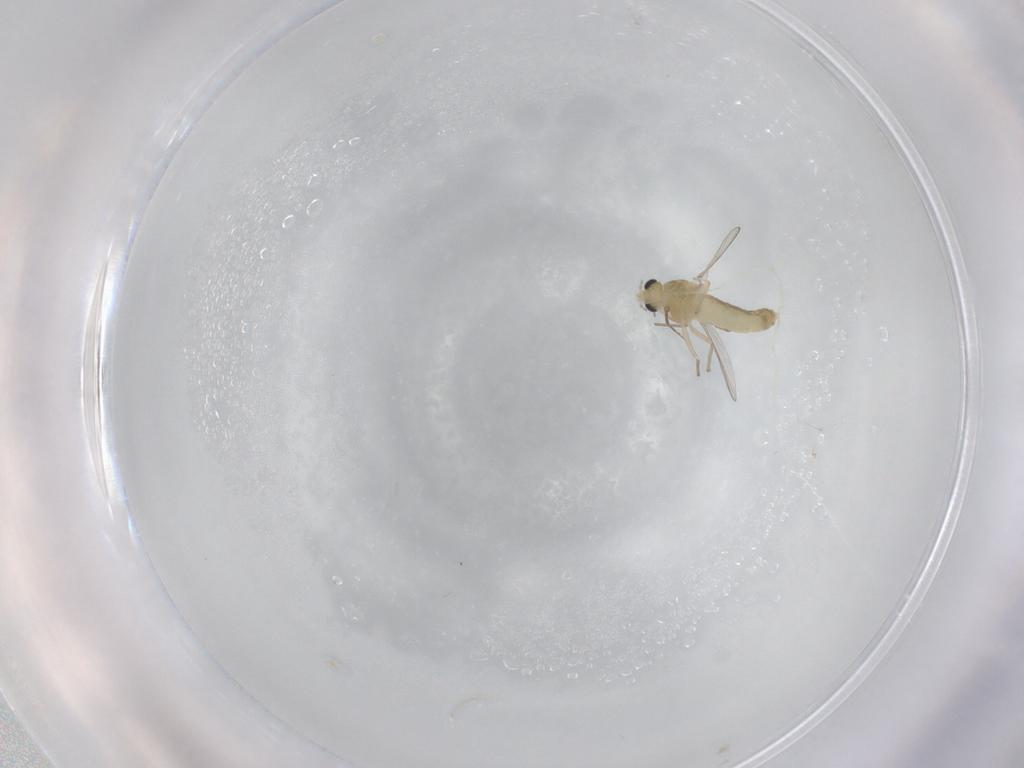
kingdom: Animalia
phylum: Arthropoda
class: Insecta
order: Diptera
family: Chironomidae
